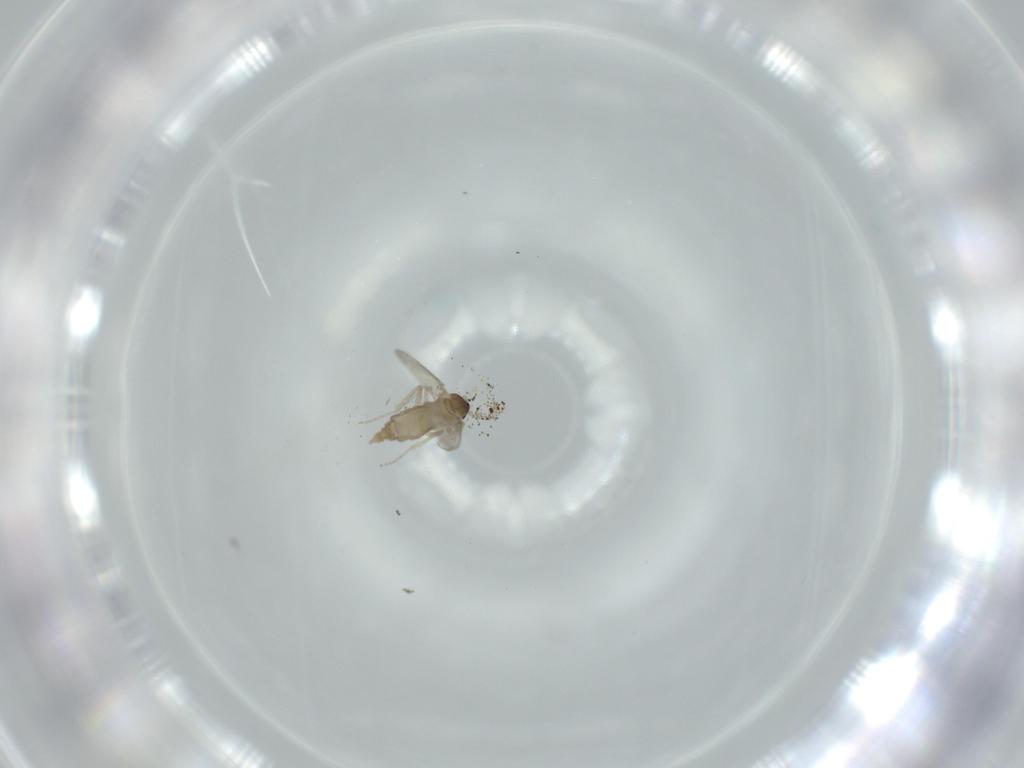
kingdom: Animalia
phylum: Arthropoda
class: Insecta
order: Diptera
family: Cecidomyiidae
